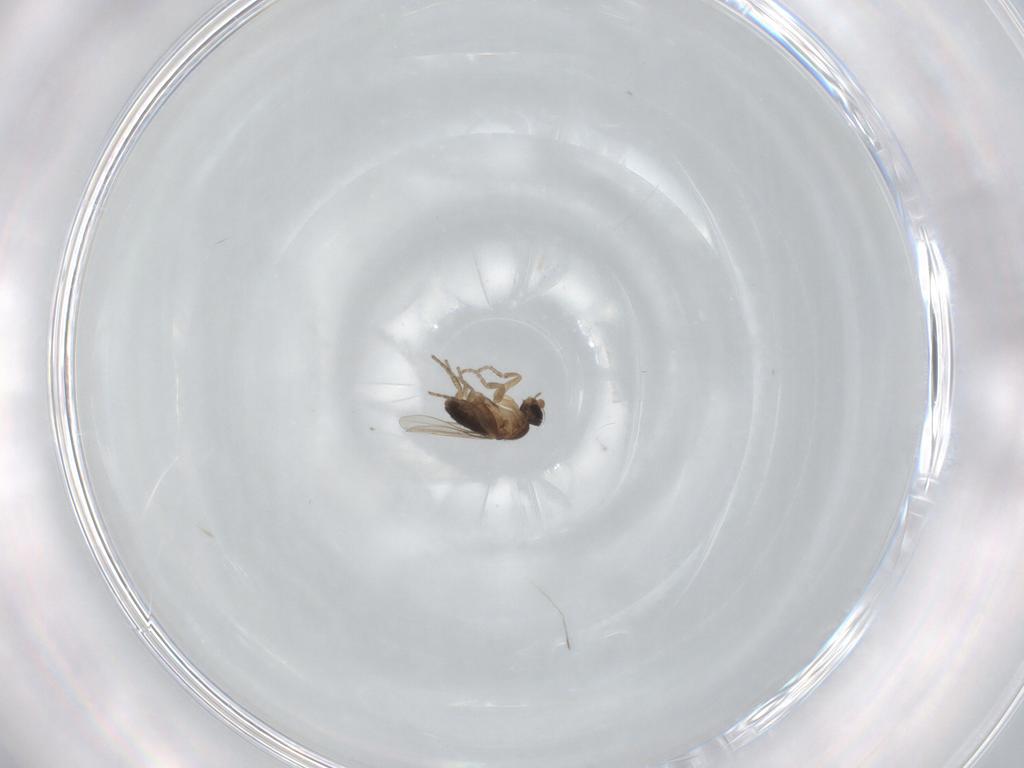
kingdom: Animalia
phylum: Arthropoda
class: Insecta
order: Diptera
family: Phoridae
